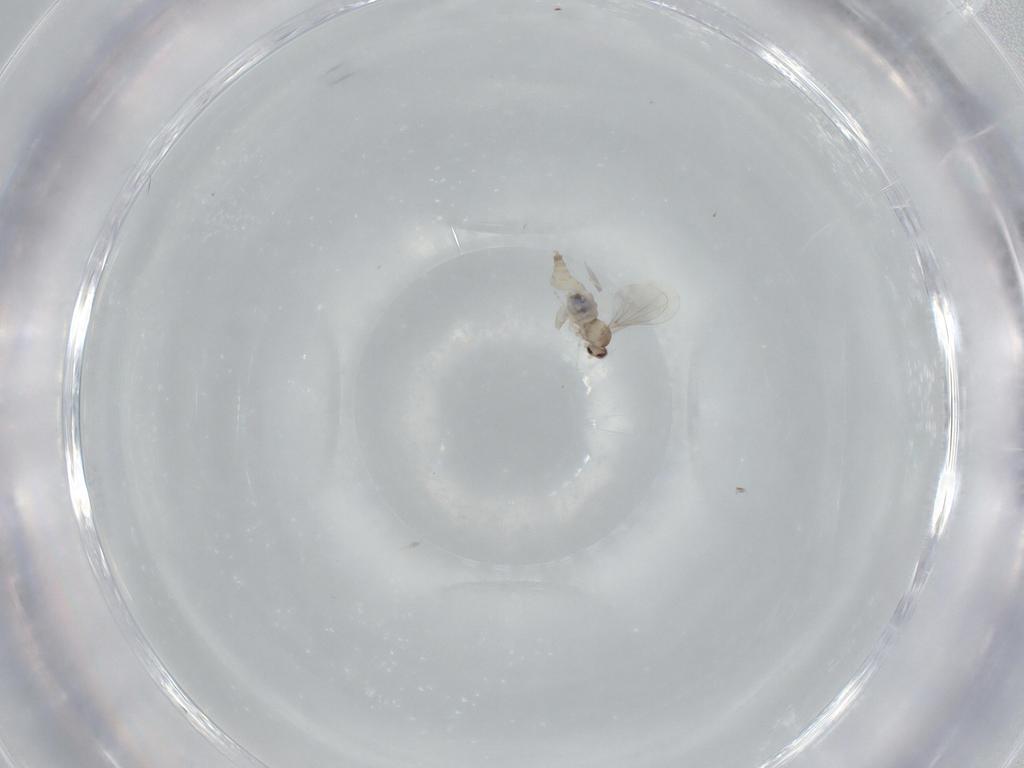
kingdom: Animalia
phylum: Arthropoda
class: Insecta
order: Diptera
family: Cecidomyiidae
